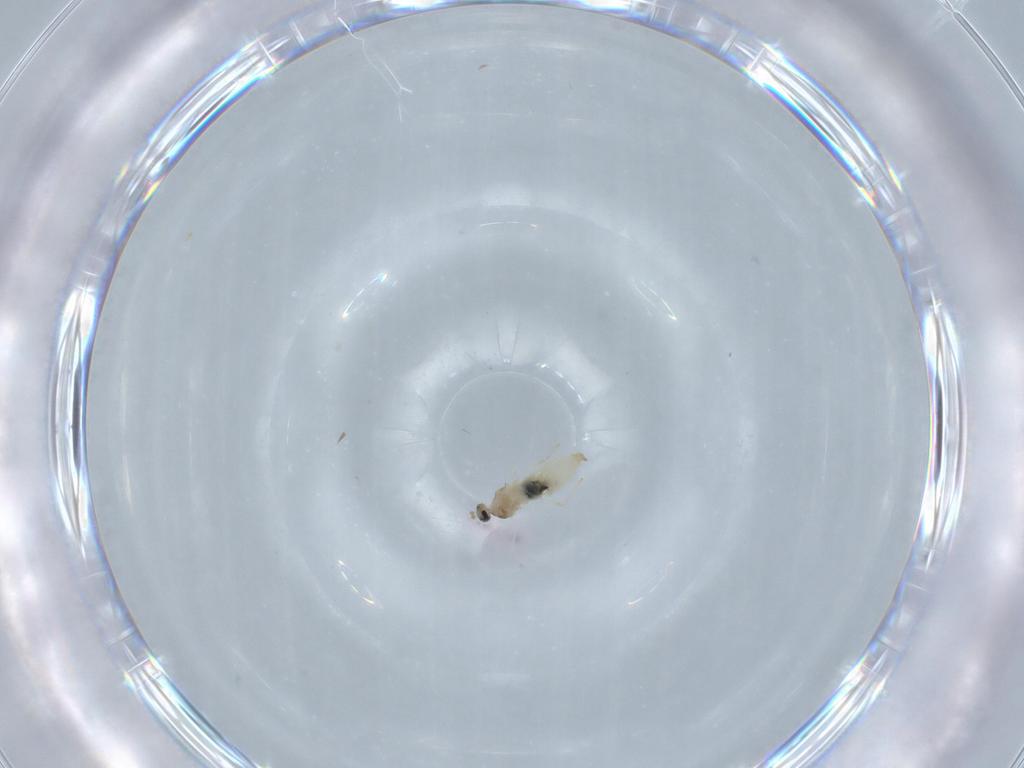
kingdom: Animalia
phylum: Arthropoda
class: Insecta
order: Diptera
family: Cecidomyiidae
